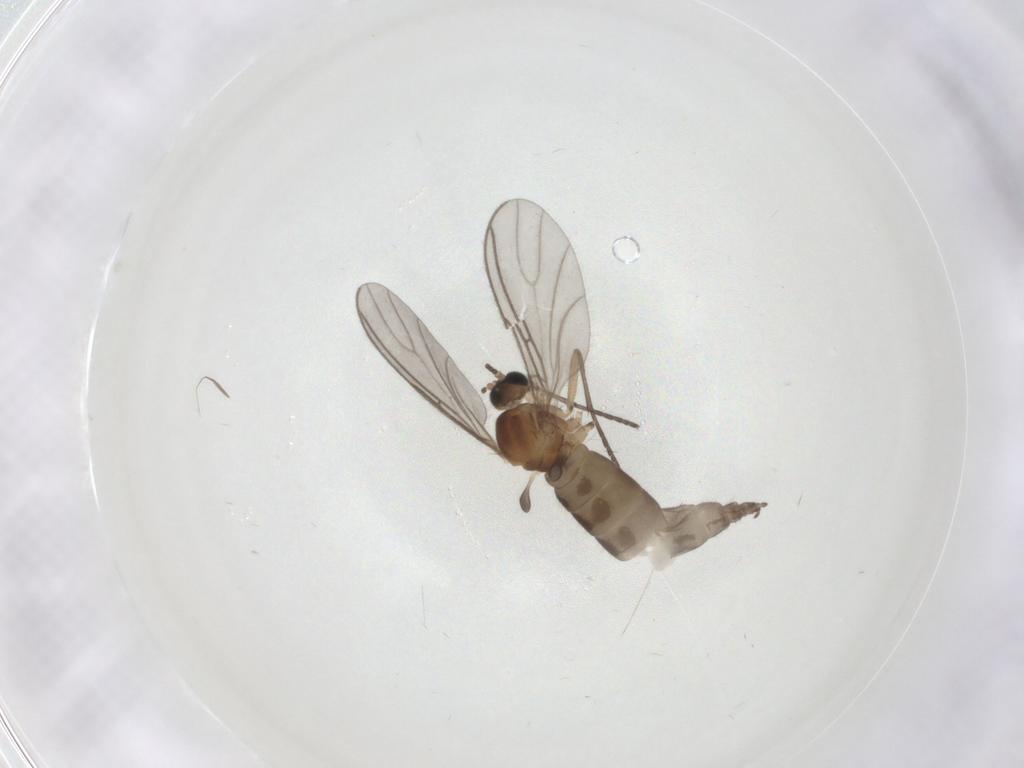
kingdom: Animalia
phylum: Arthropoda
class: Insecta
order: Diptera
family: Sciaridae
